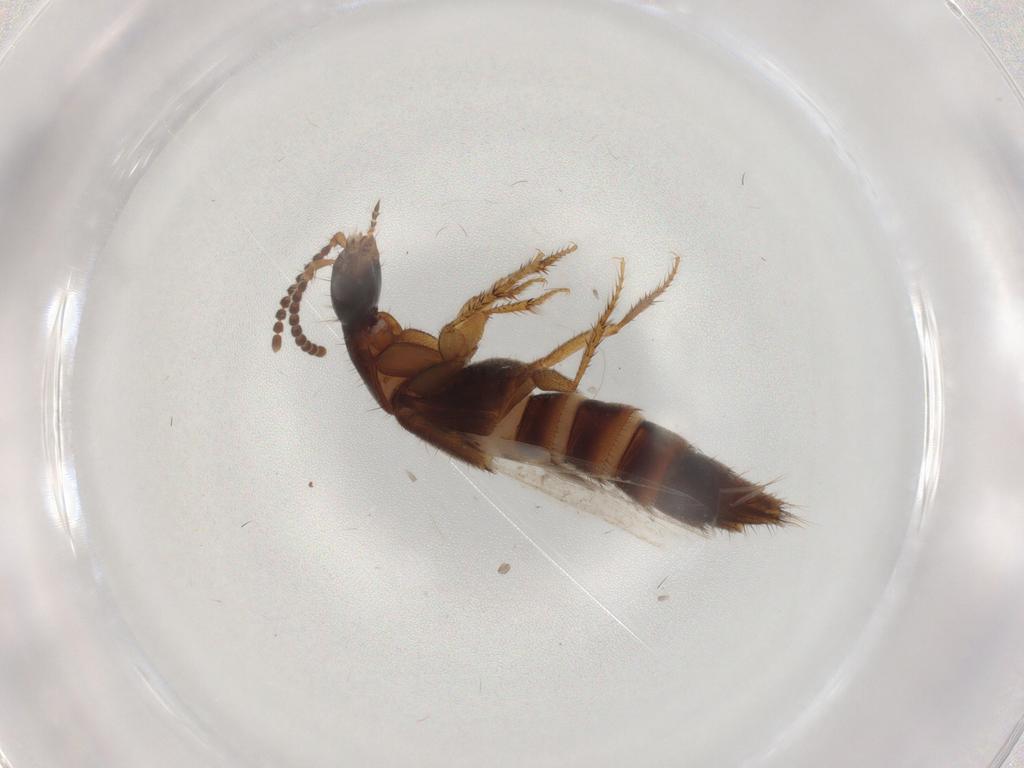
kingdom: Animalia
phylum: Arthropoda
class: Insecta
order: Coleoptera
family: Staphylinidae
